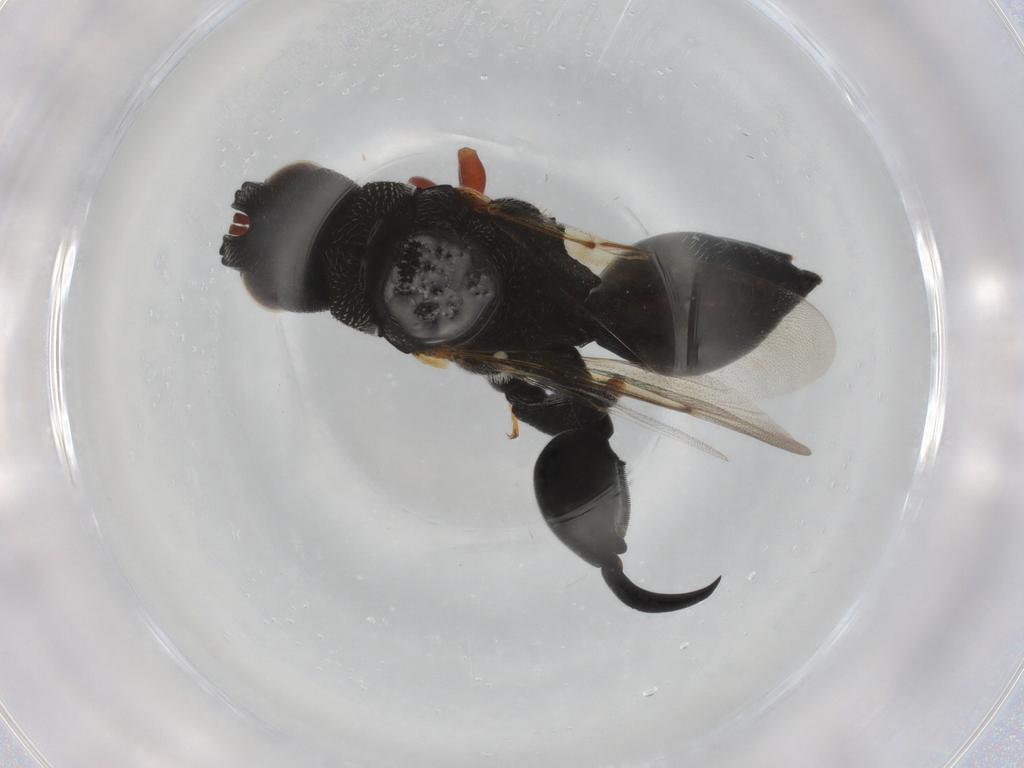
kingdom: Animalia
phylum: Arthropoda
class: Insecta
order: Hymenoptera
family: Chalcididae
